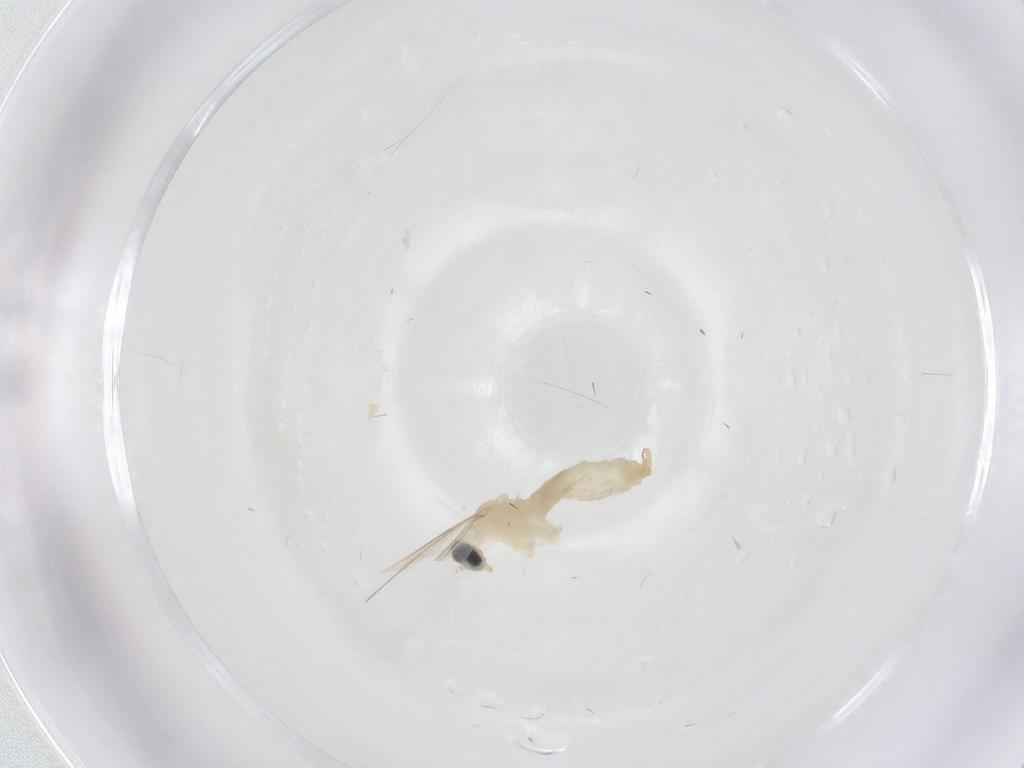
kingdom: Animalia
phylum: Arthropoda
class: Insecta
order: Diptera
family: Cecidomyiidae
